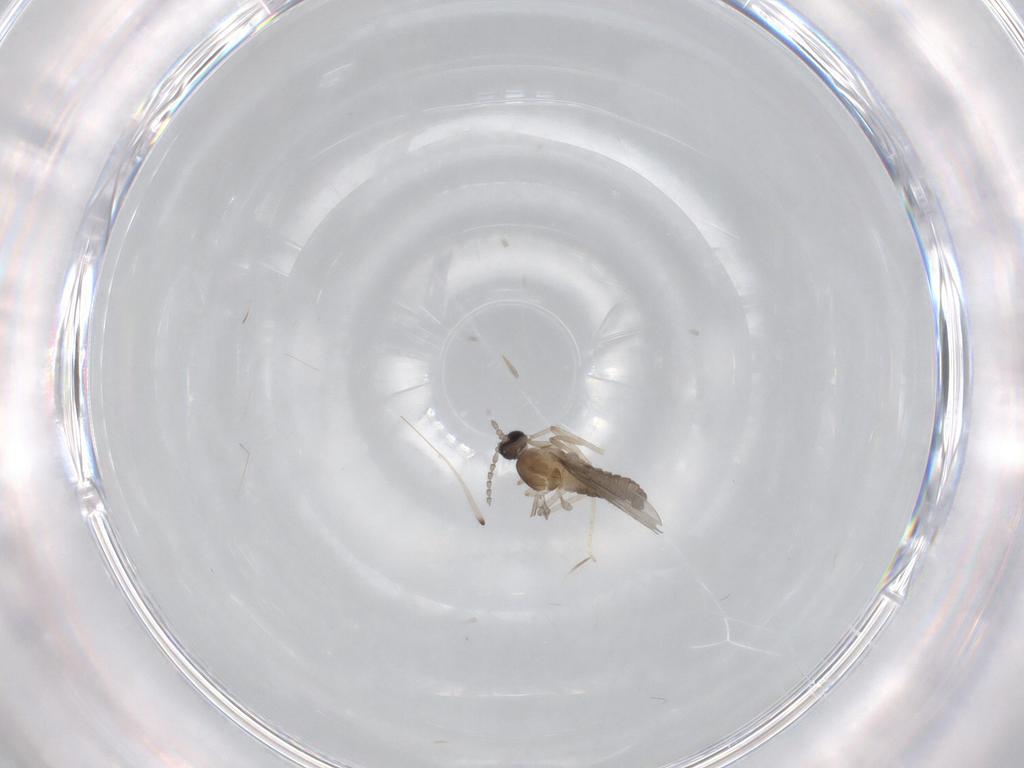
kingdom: Animalia
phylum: Arthropoda
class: Insecta
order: Diptera
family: Cecidomyiidae
